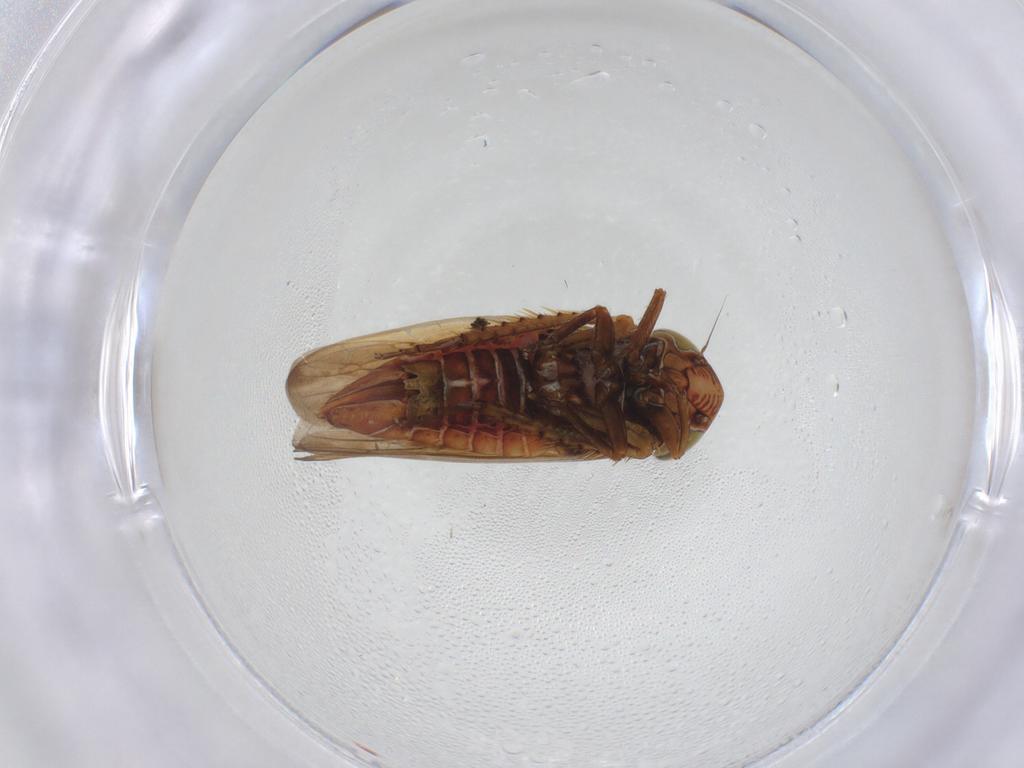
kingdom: Animalia
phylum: Arthropoda
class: Insecta
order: Hemiptera
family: Cicadellidae
